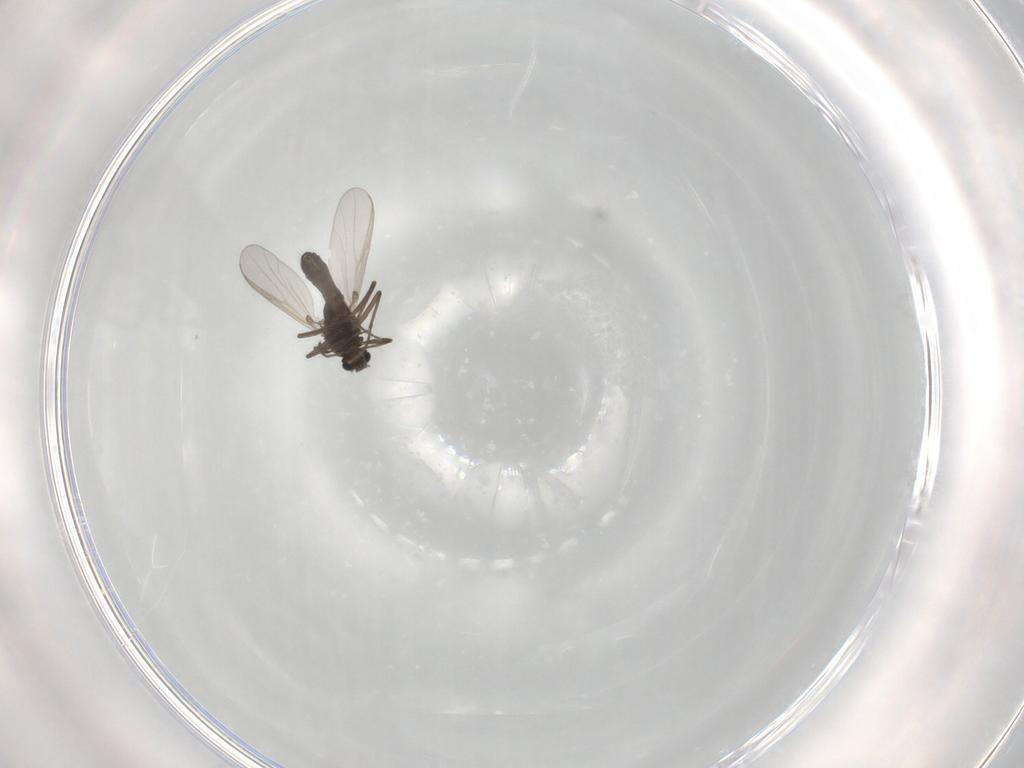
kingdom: Animalia
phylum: Arthropoda
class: Insecta
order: Diptera
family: Chironomidae
